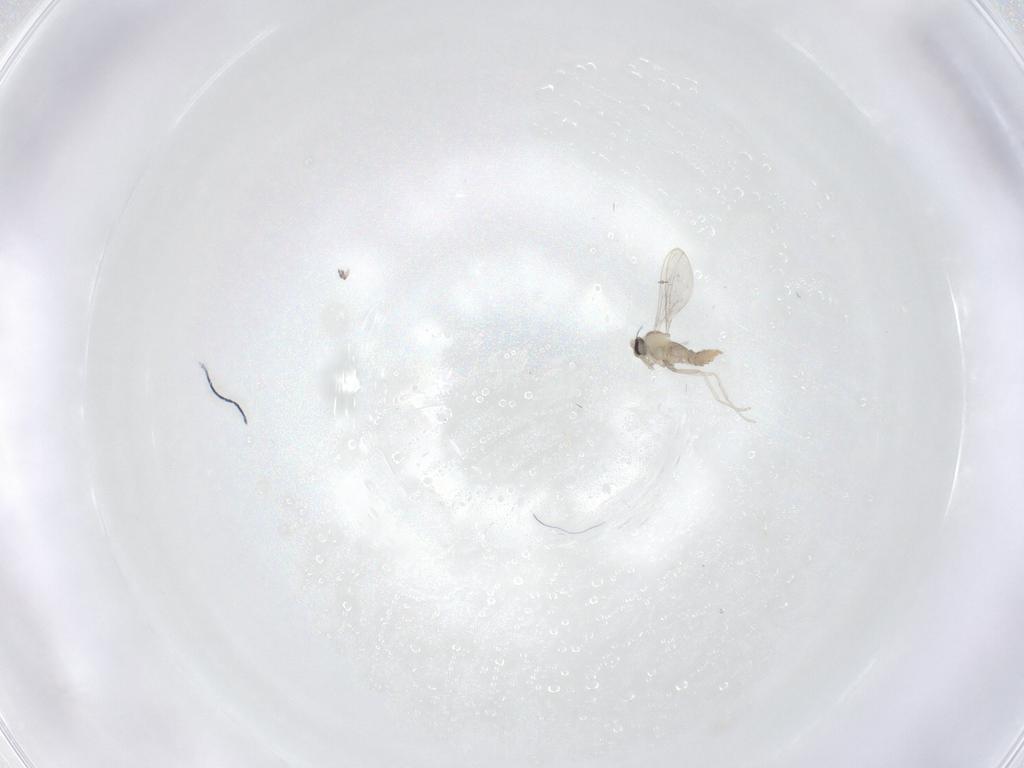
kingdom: Animalia
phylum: Arthropoda
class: Insecta
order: Diptera
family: Cecidomyiidae
